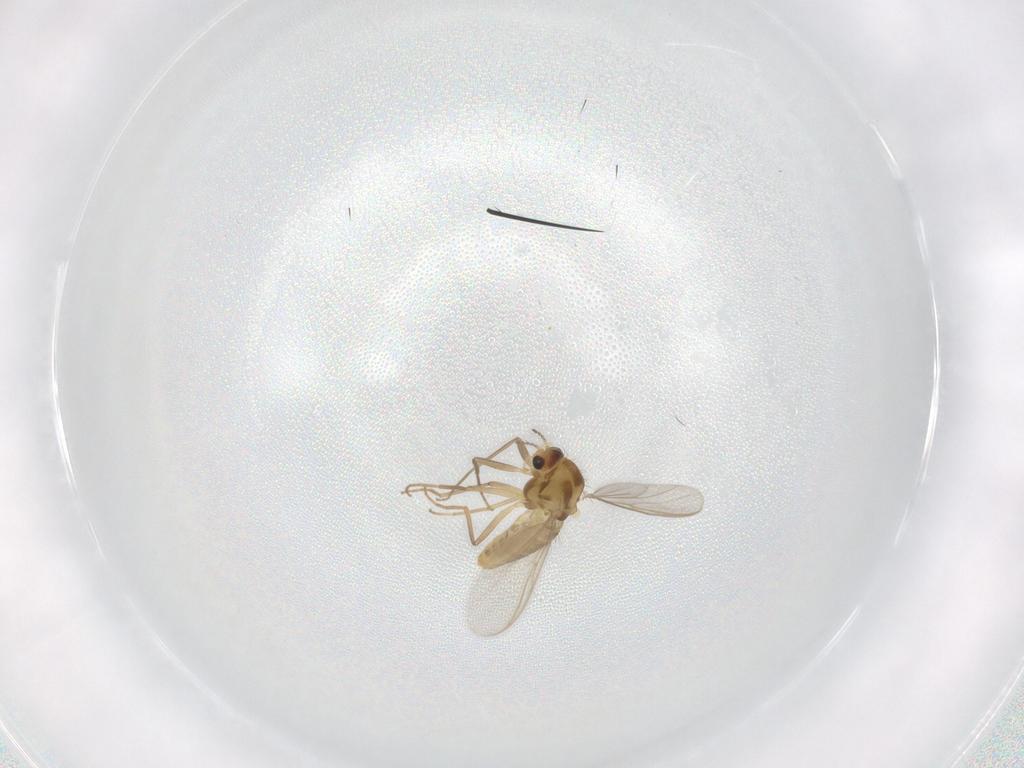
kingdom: Animalia
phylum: Arthropoda
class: Insecta
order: Diptera
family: Chironomidae
